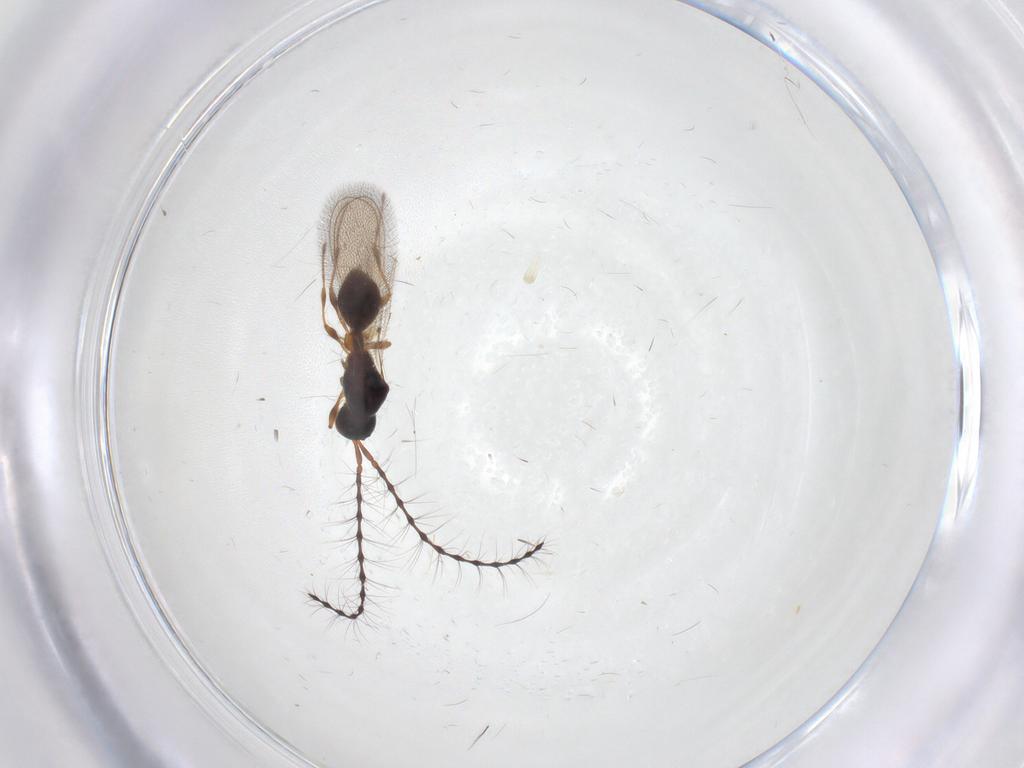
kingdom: Animalia
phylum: Arthropoda
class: Insecta
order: Hymenoptera
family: Diapriidae
